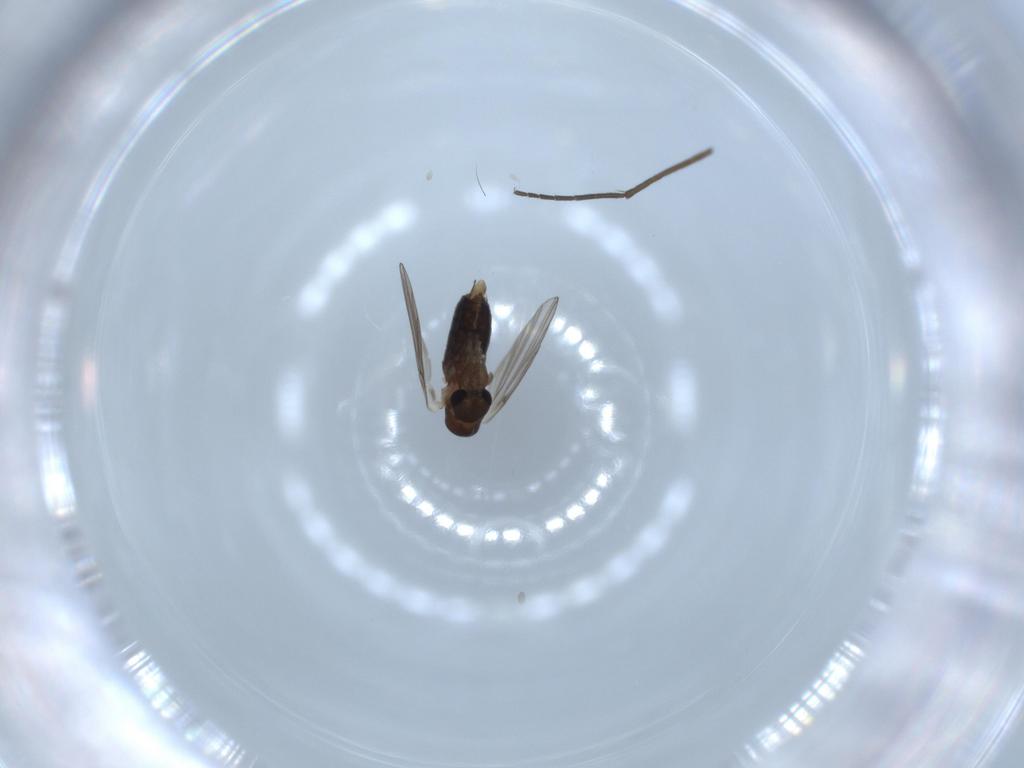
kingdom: Animalia
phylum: Arthropoda
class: Insecta
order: Diptera
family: Chironomidae
